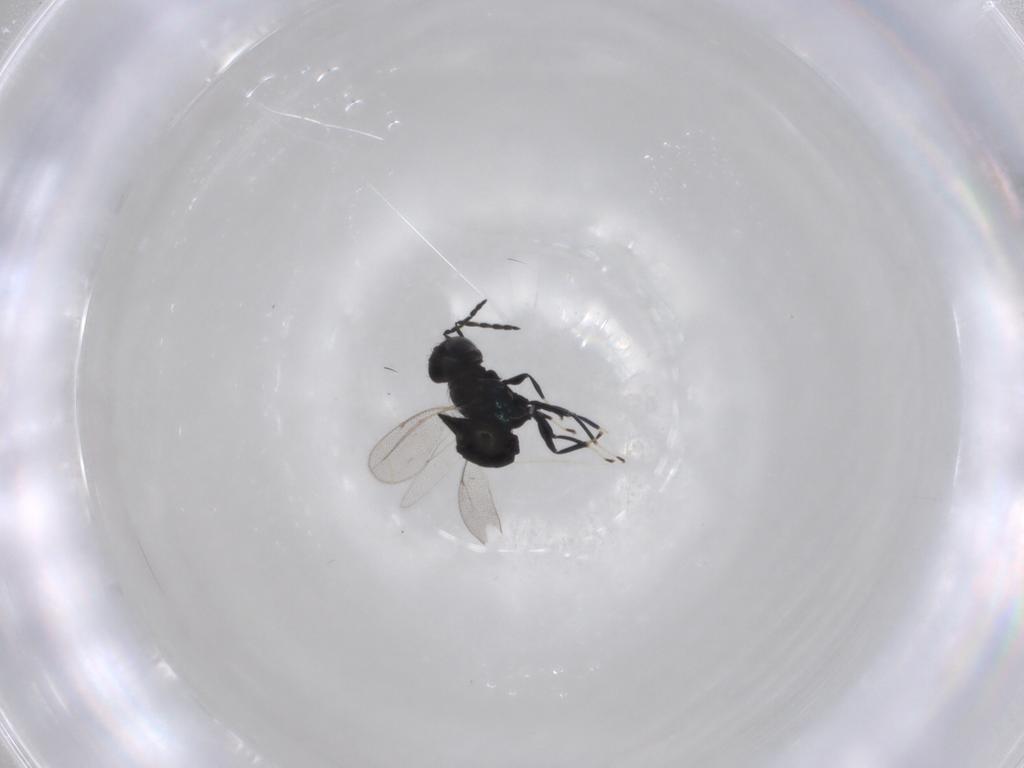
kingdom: Animalia
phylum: Arthropoda
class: Insecta
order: Hymenoptera
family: Eulophidae
